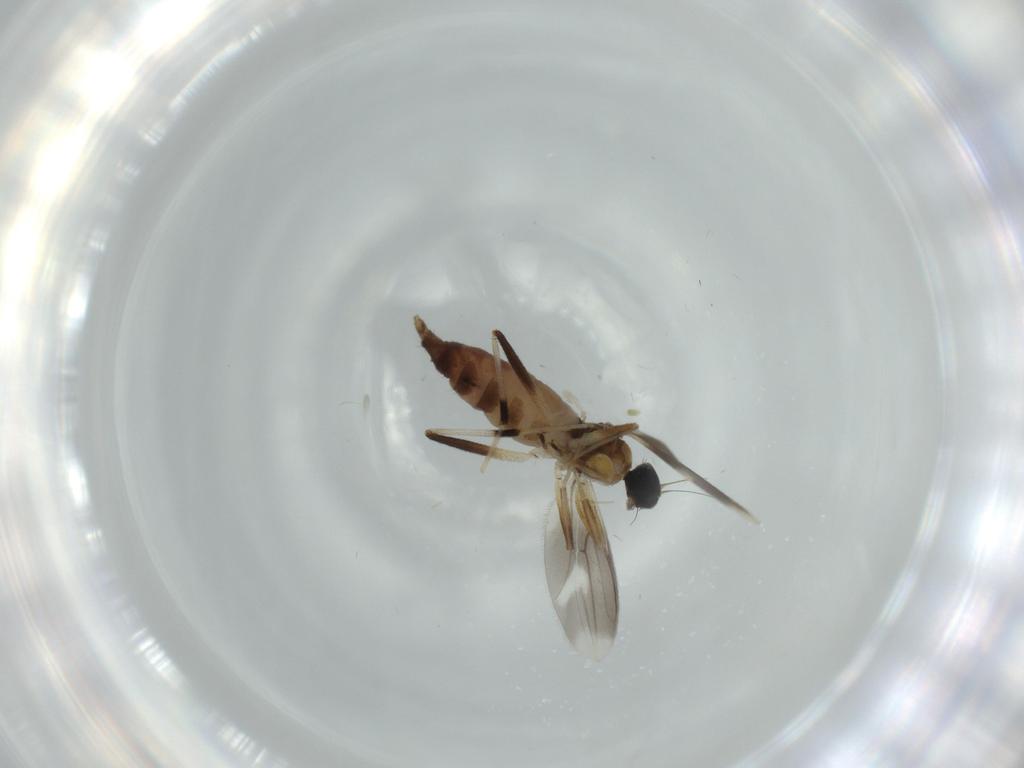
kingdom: Animalia
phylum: Arthropoda
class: Insecta
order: Diptera
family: Hybotidae
